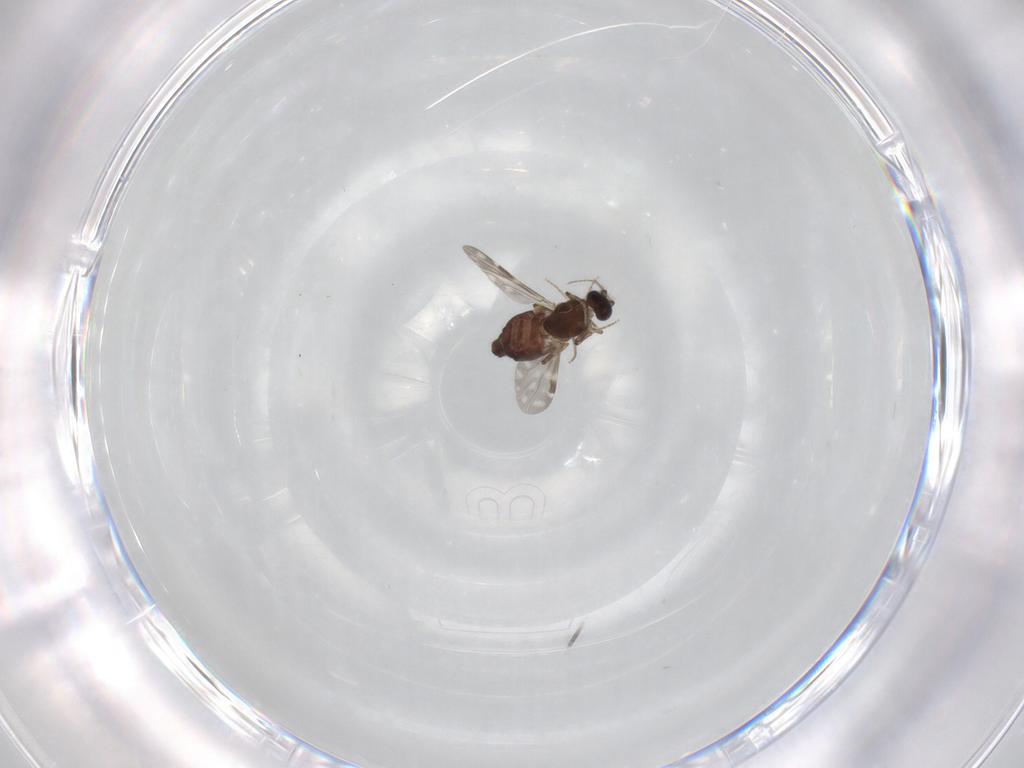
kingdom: Animalia
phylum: Arthropoda
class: Insecta
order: Diptera
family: Ceratopogonidae
